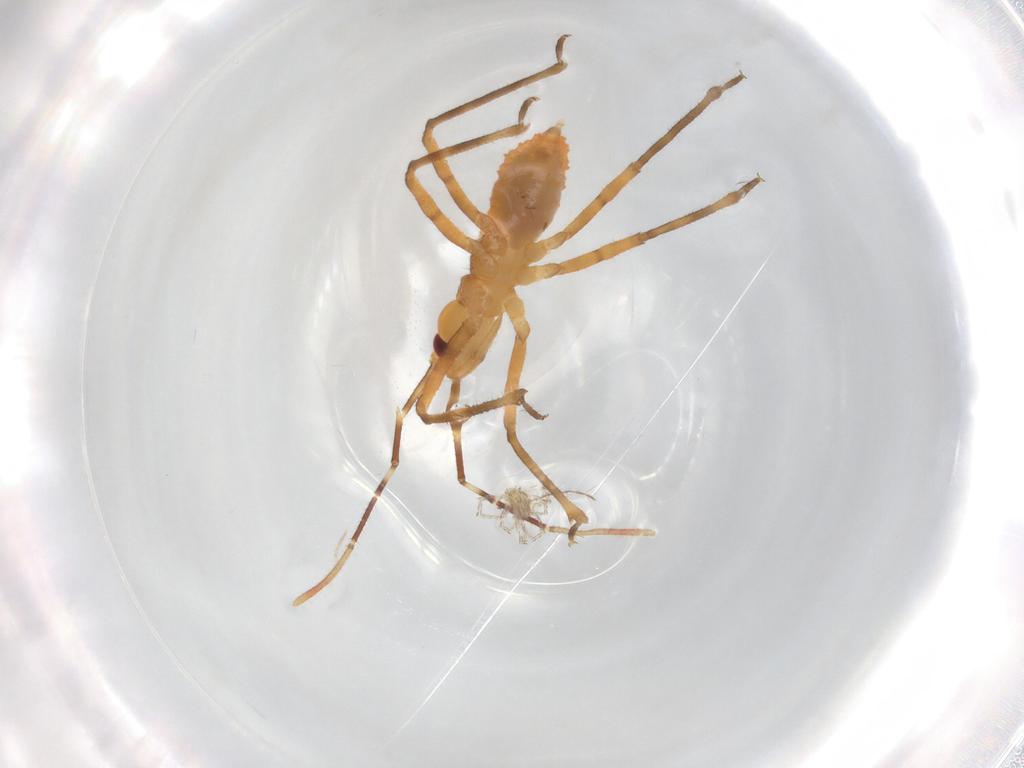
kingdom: Animalia
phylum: Arthropoda
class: Insecta
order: Hemiptera
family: Reduviidae
